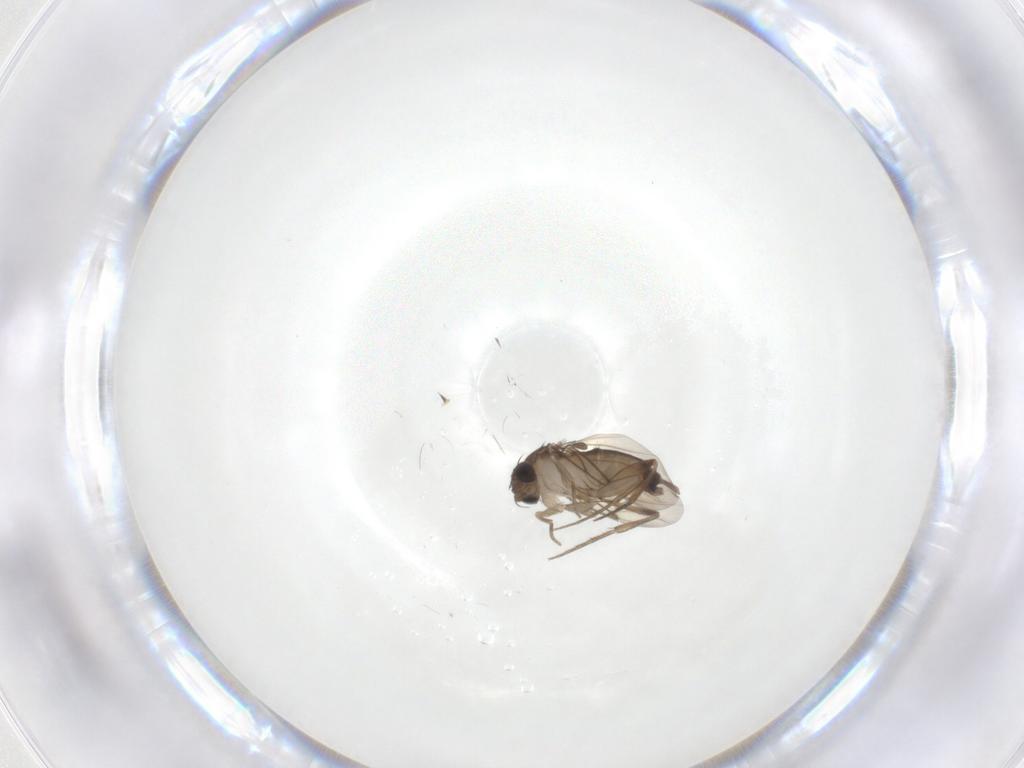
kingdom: Animalia
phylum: Arthropoda
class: Insecta
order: Diptera
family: Phoridae
